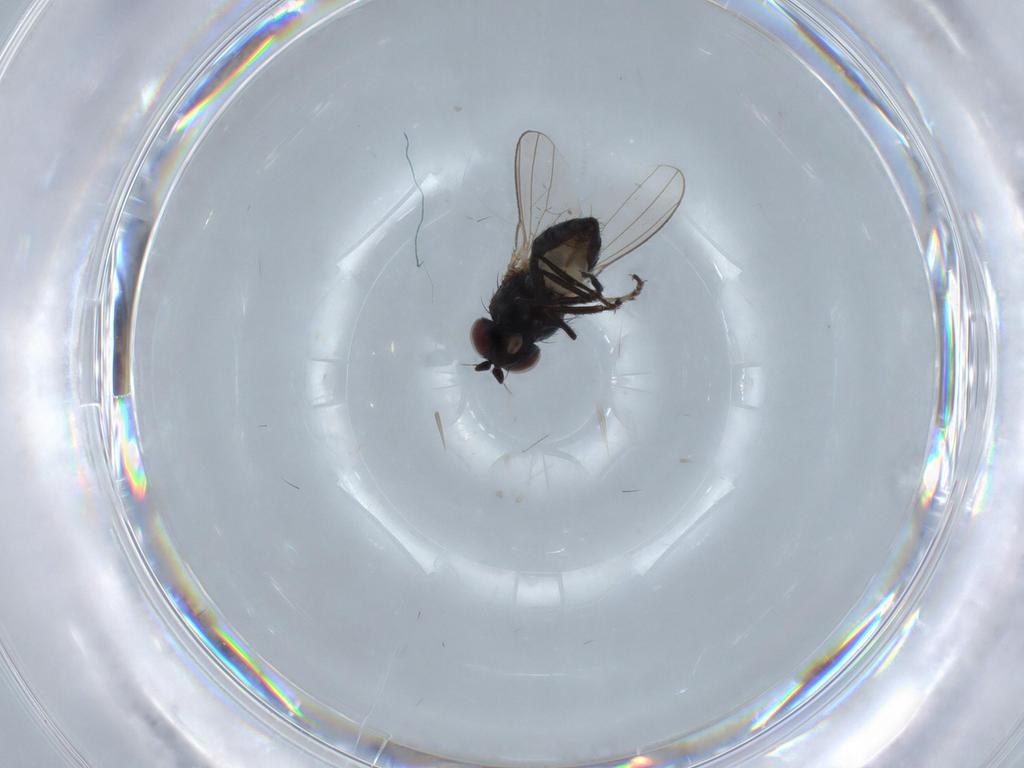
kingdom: Animalia
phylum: Arthropoda
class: Insecta
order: Diptera
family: Ephydridae
